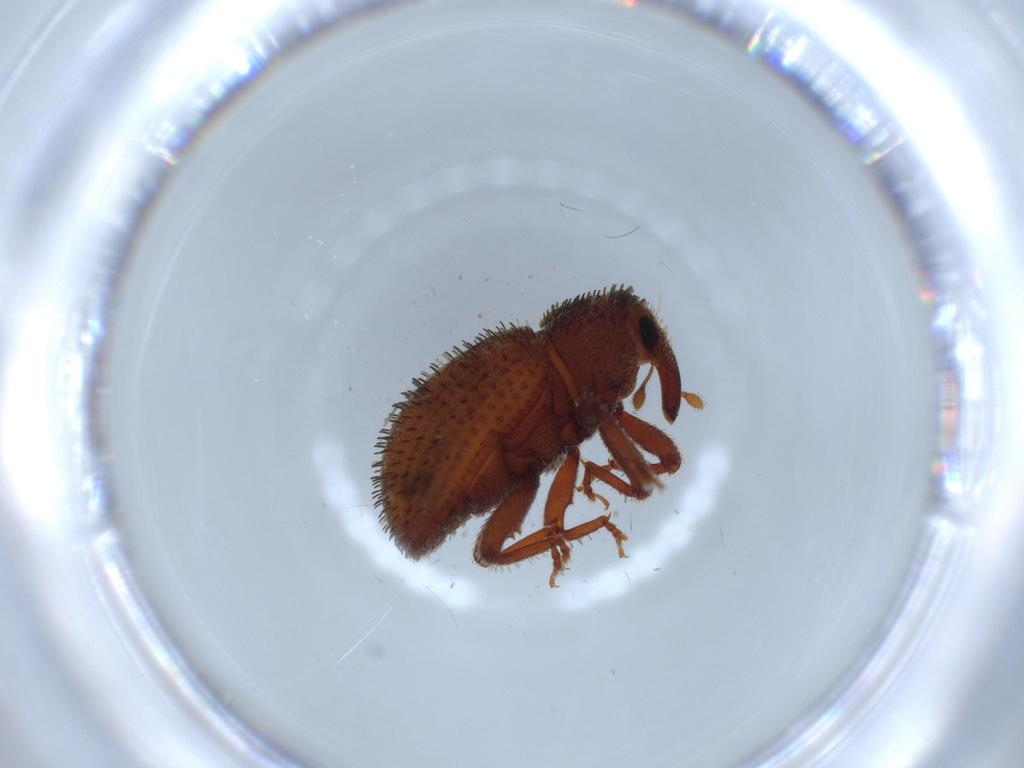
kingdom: Animalia
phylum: Arthropoda
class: Insecta
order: Coleoptera
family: Curculionidae
